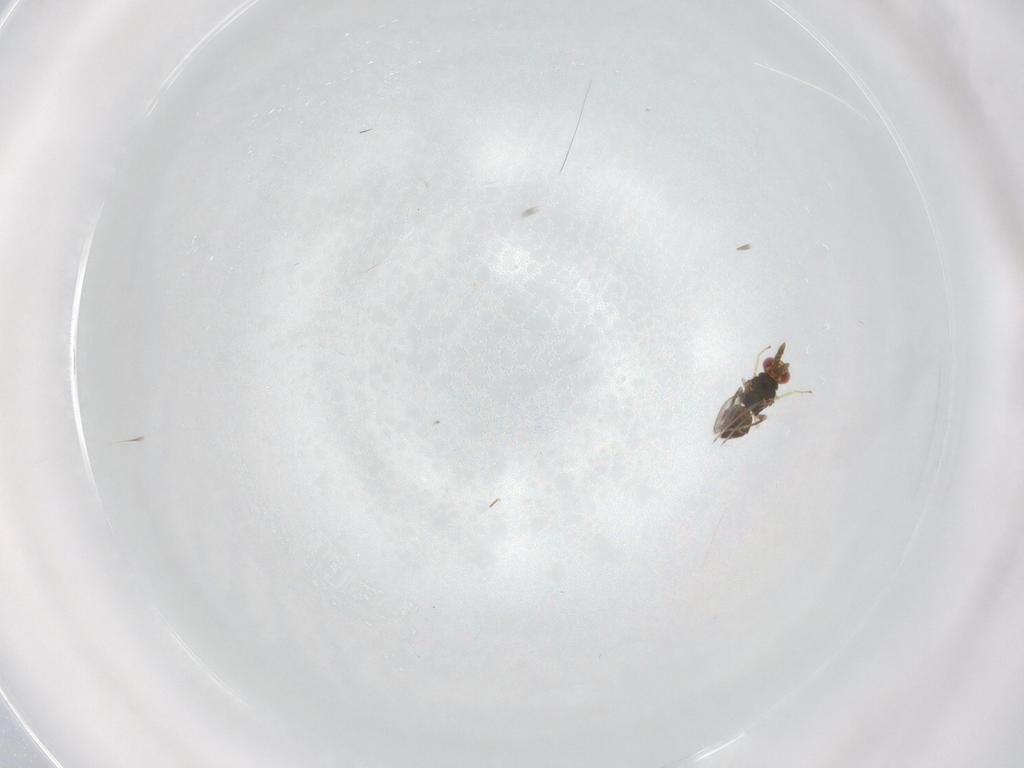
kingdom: Animalia
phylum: Arthropoda
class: Insecta
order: Hymenoptera
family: Eulophidae
